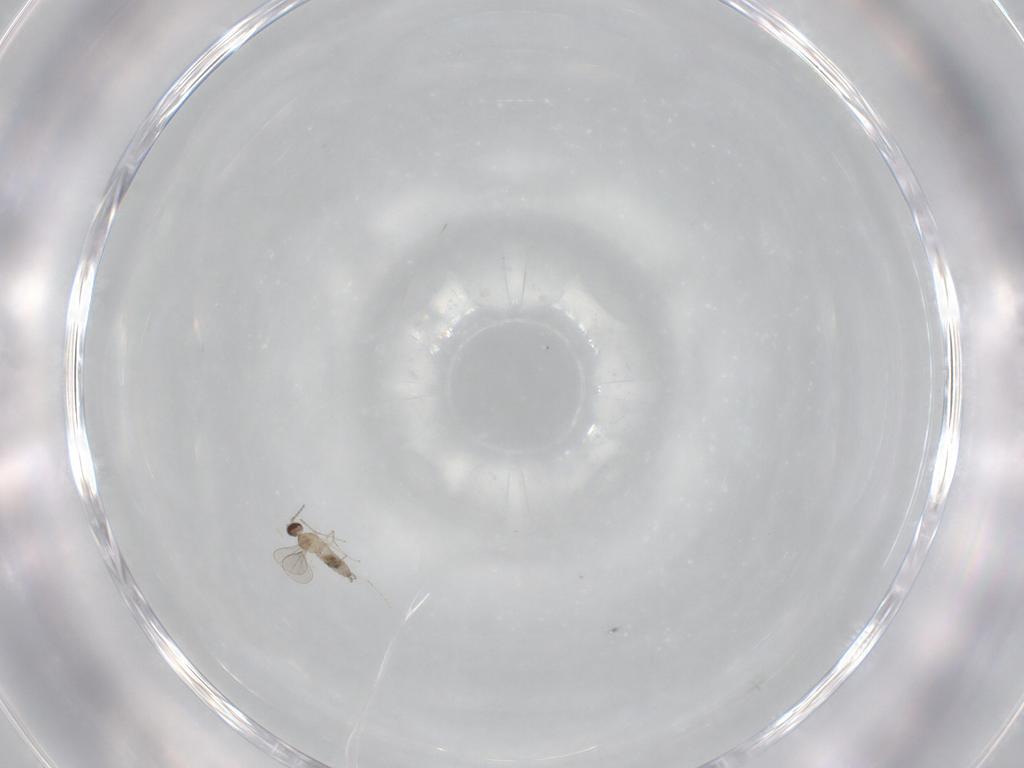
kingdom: Animalia
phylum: Arthropoda
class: Insecta
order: Diptera
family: Cecidomyiidae
